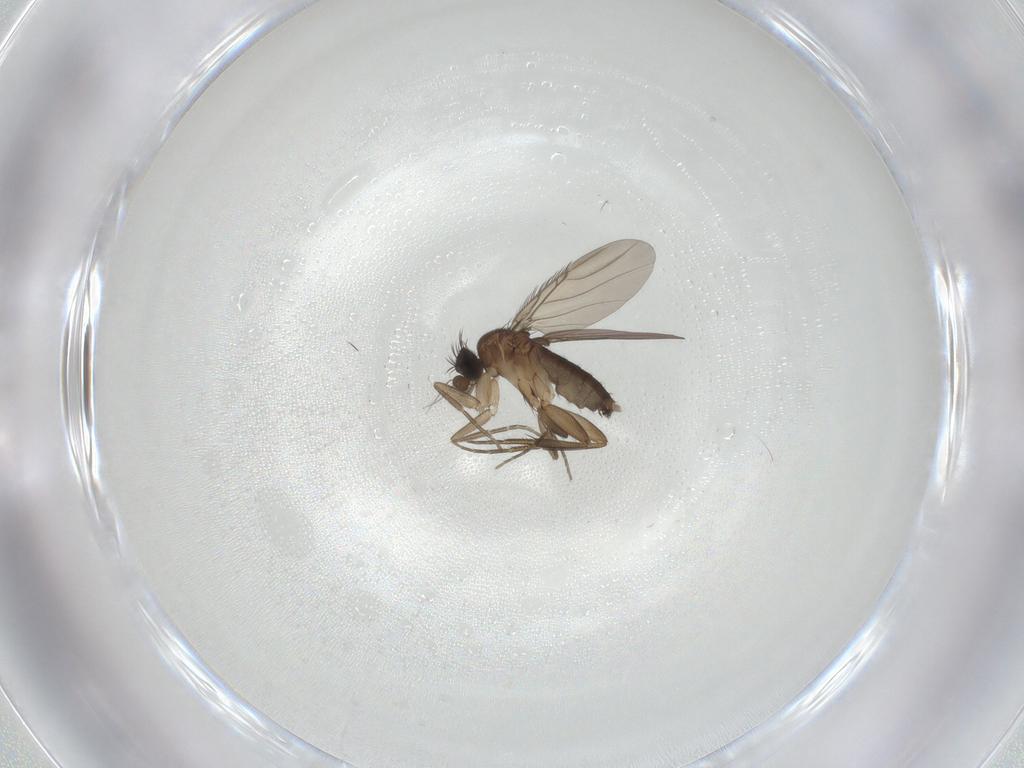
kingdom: Animalia
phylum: Arthropoda
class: Insecta
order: Diptera
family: Phoridae
